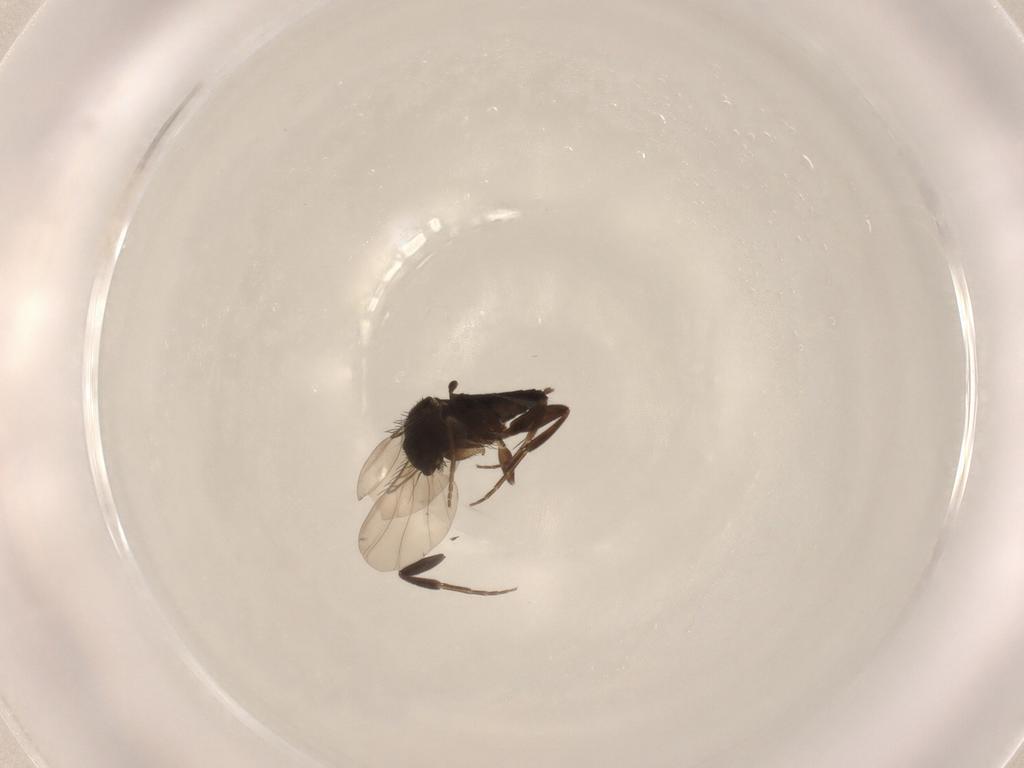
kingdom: Animalia
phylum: Arthropoda
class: Insecta
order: Diptera
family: Phoridae
